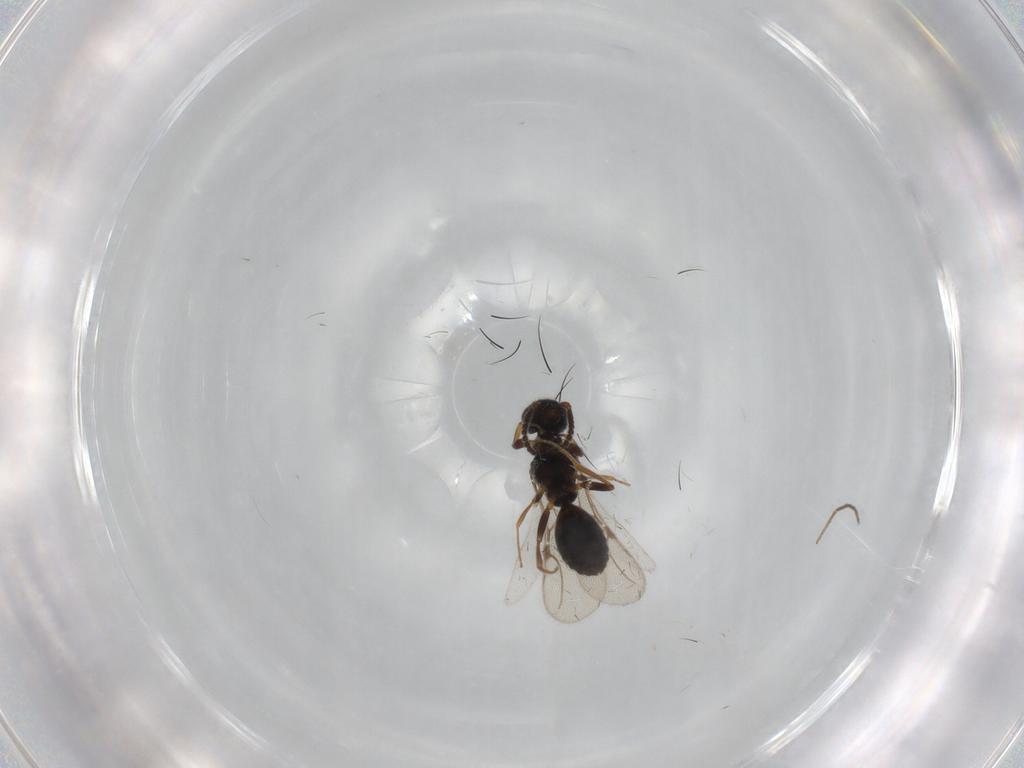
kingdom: Animalia
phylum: Arthropoda
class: Insecta
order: Hymenoptera
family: Bethylidae
